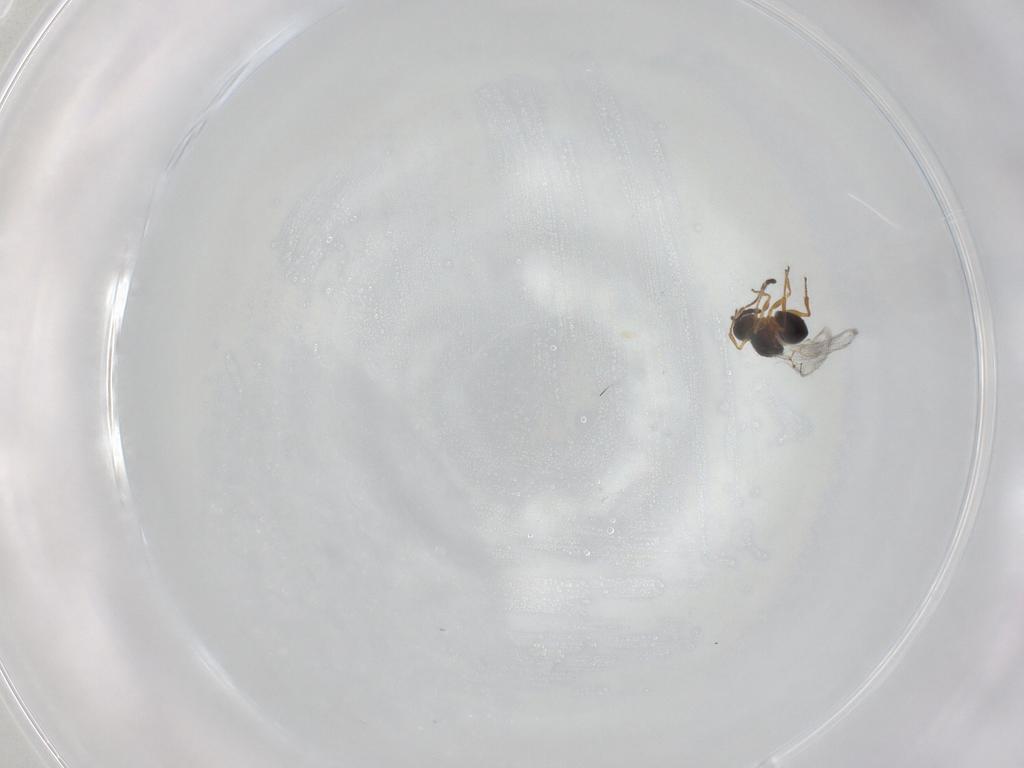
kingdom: Animalia
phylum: Arthropoda
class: Insecta
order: Hymenoptera
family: Figitidae
